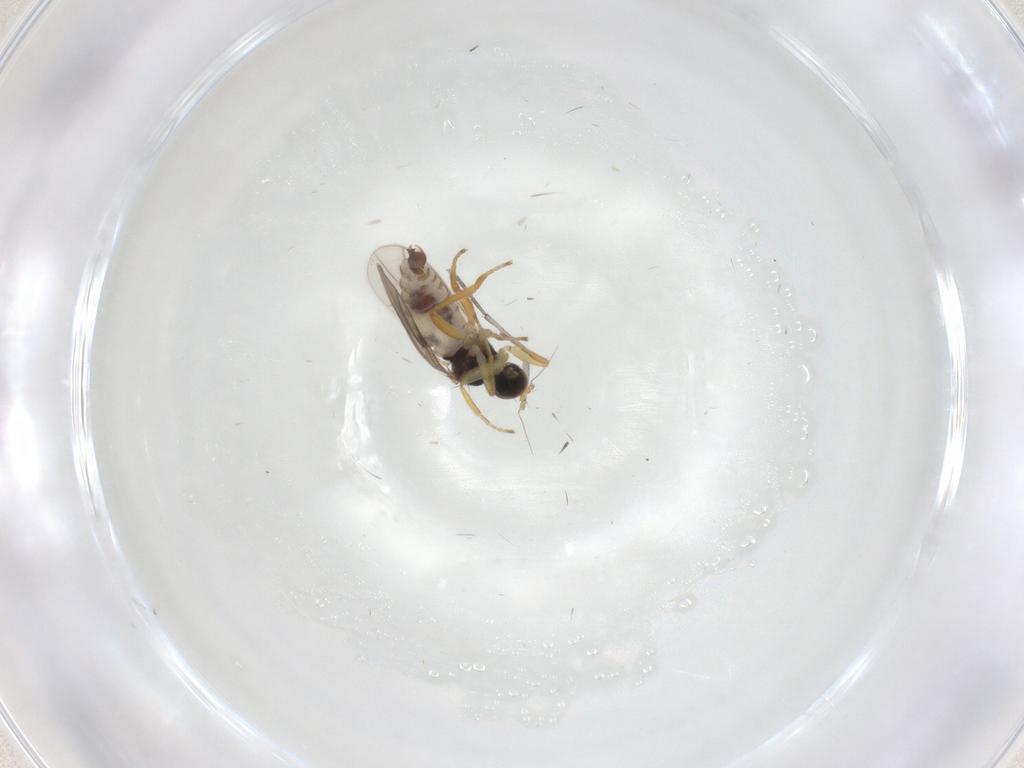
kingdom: Animalia
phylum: Arthropoda
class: Insecta
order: Diptera
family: Hybotidae
